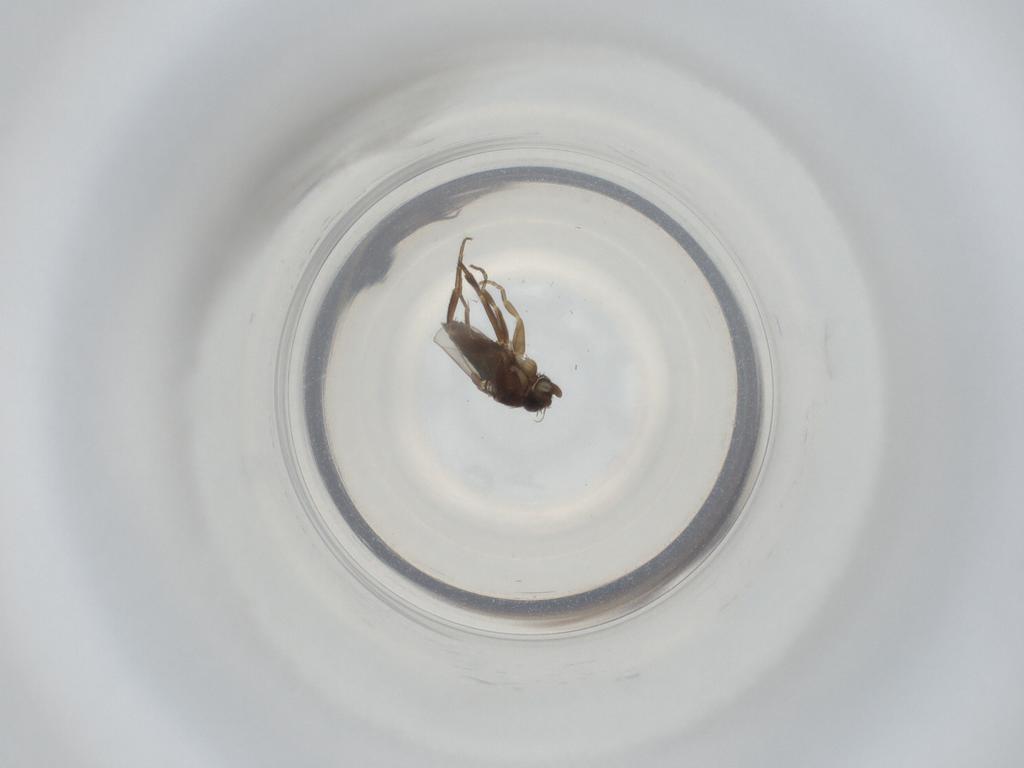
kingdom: Animalia
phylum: Arthropoda
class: Insecta
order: Diptera
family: Phoridae
